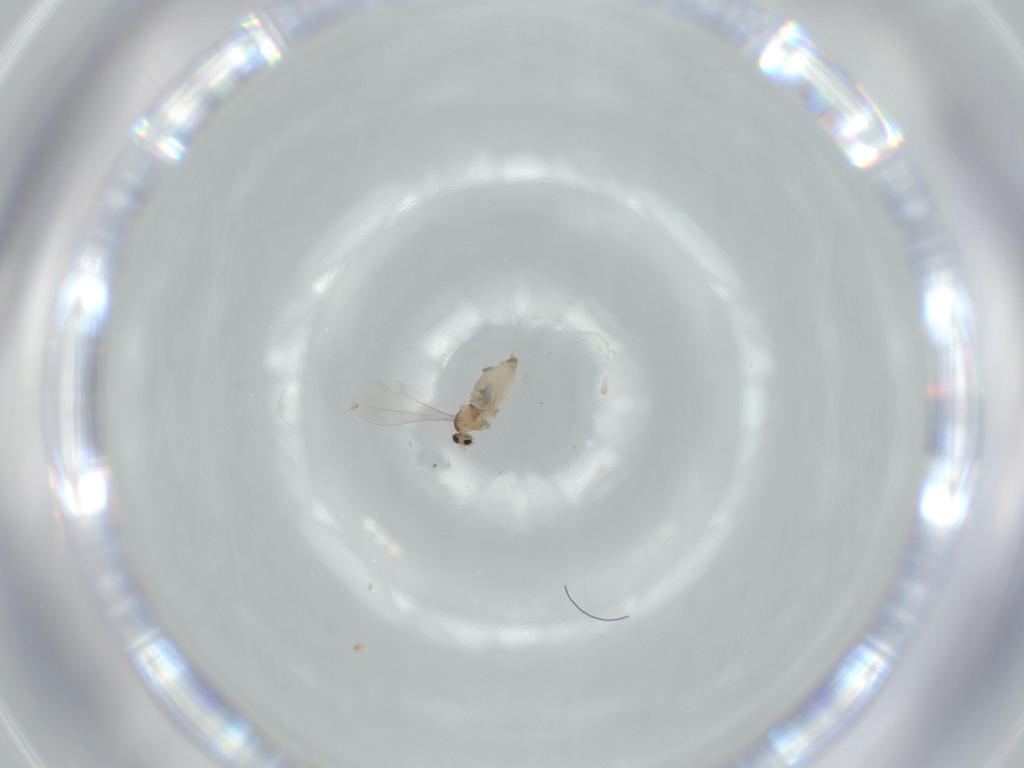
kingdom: Animalia
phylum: Arthropoda
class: Insecta
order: Diptera
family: Cecidomyiidae
